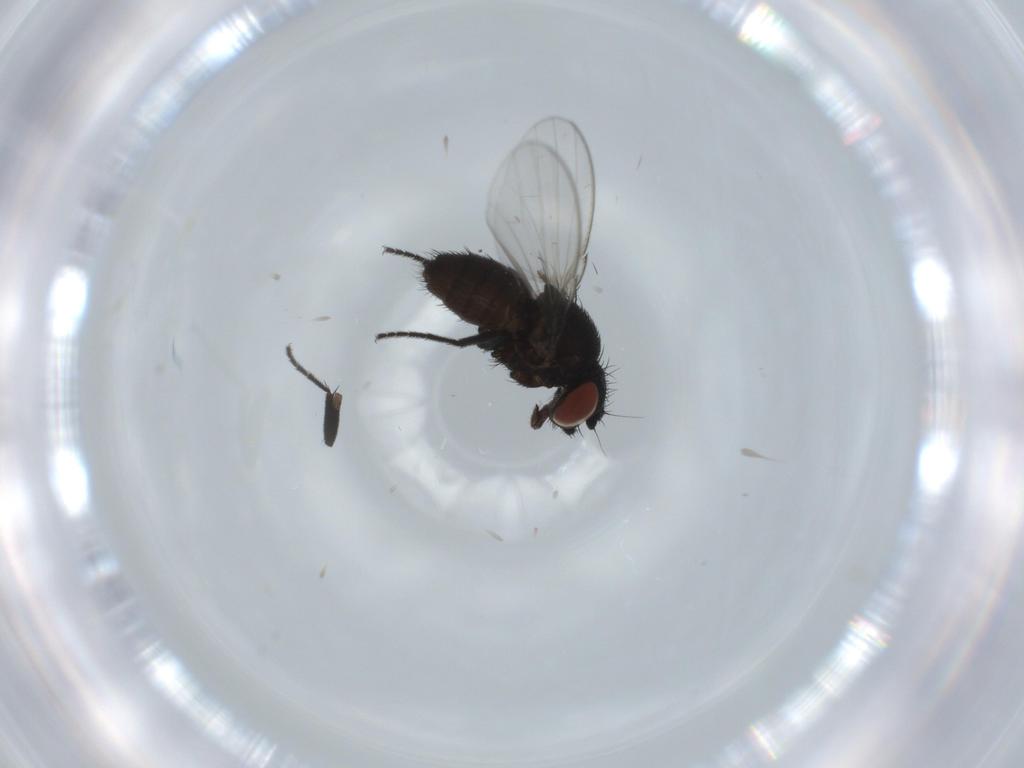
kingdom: Animalia
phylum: Arthropoda
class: Insecta
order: Diptera
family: Milichiidae
